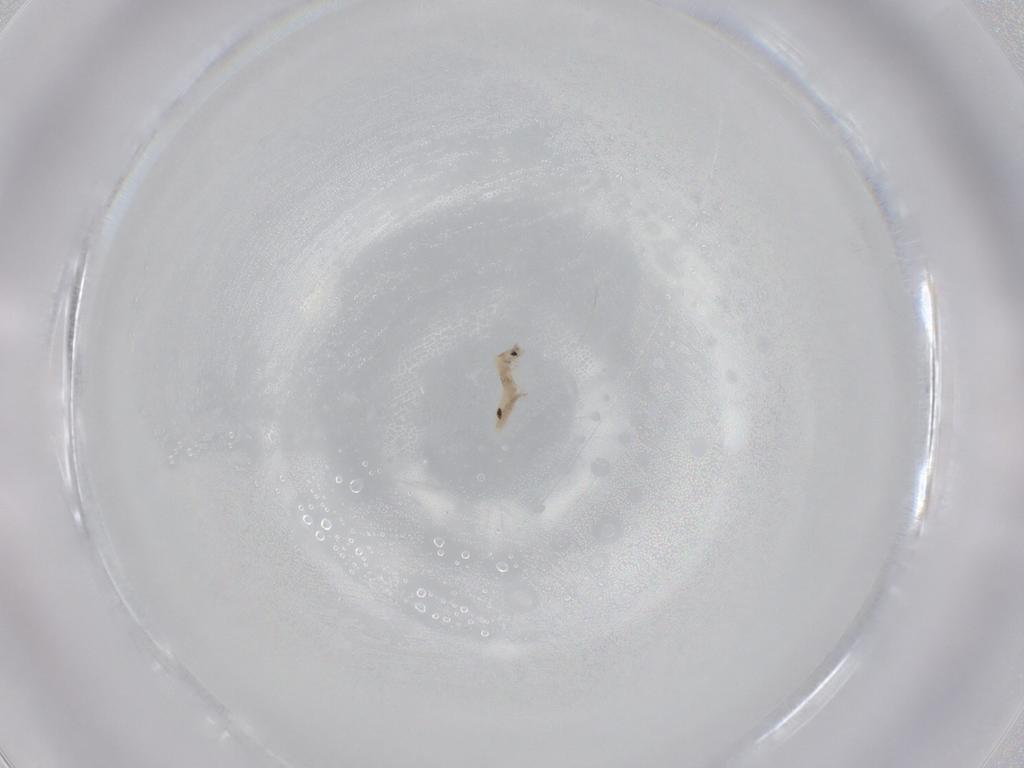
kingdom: Animalia
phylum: Arthropoda
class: Collembola
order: Entomobryomorpha
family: Entomobryidae
